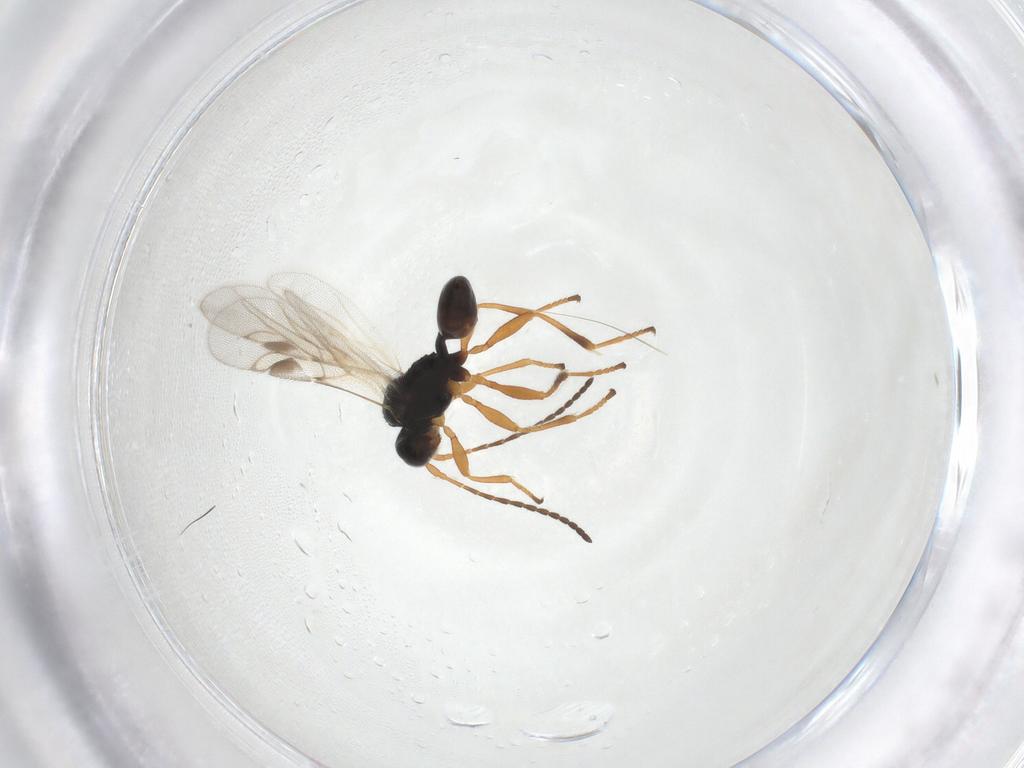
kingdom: Animalia
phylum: Arthropoda
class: Insecta
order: Hymenoptera
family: Braconidae
